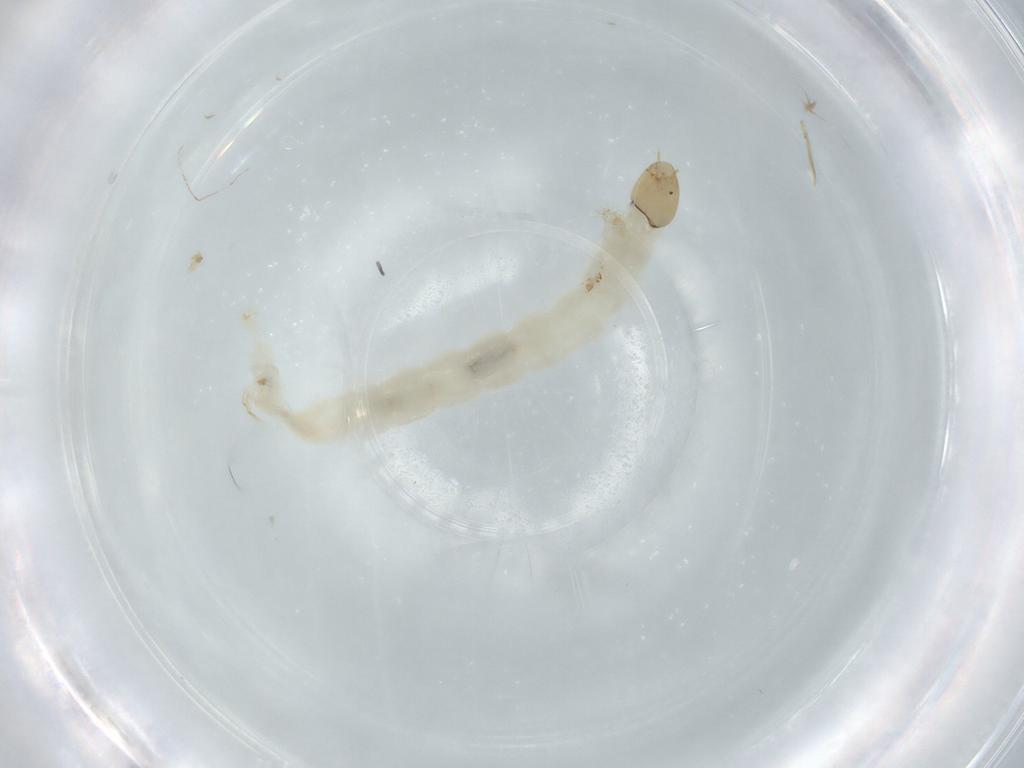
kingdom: Animalia
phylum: Arthropoda
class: Insecta
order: Diptera
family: Chironomidae
